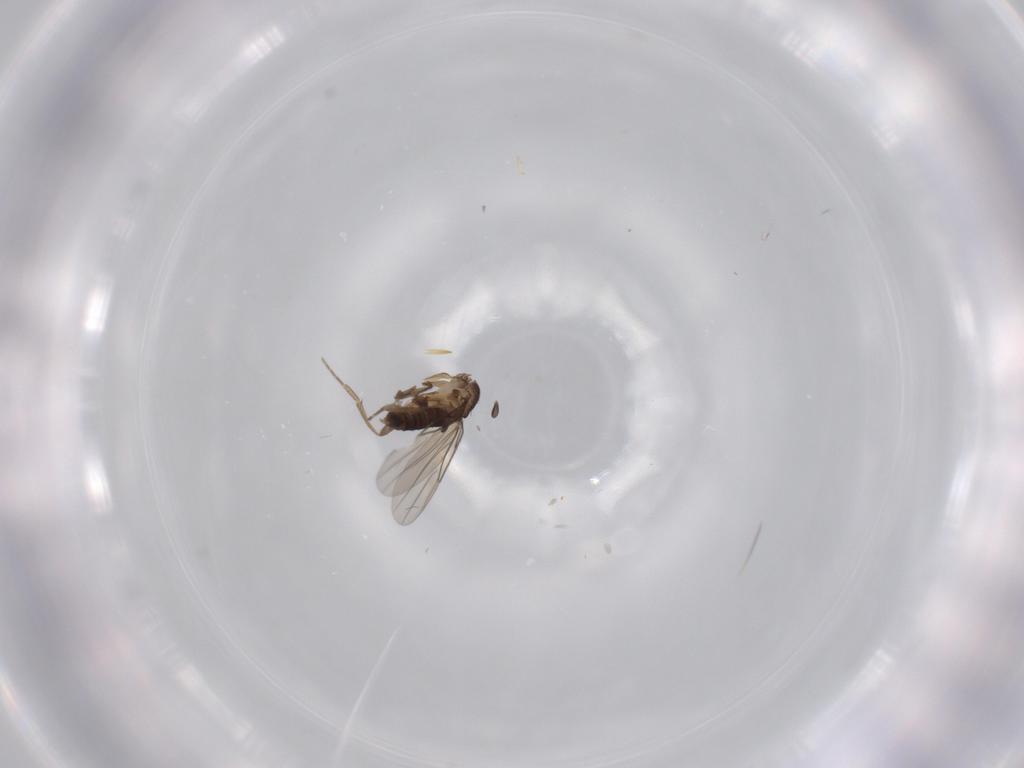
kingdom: Animalia
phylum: Arthropoda
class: Insecta
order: Diptera
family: Phoridae
